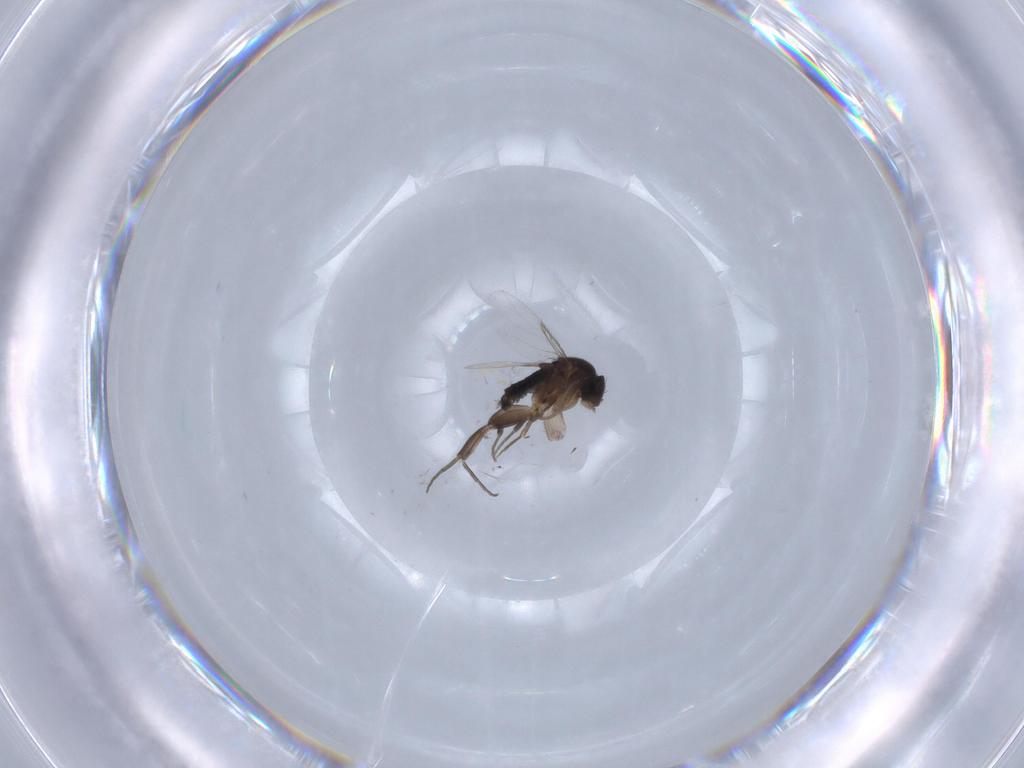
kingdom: Animalia
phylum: Arthropoda
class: Insecta
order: Diptera
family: Phoridae
